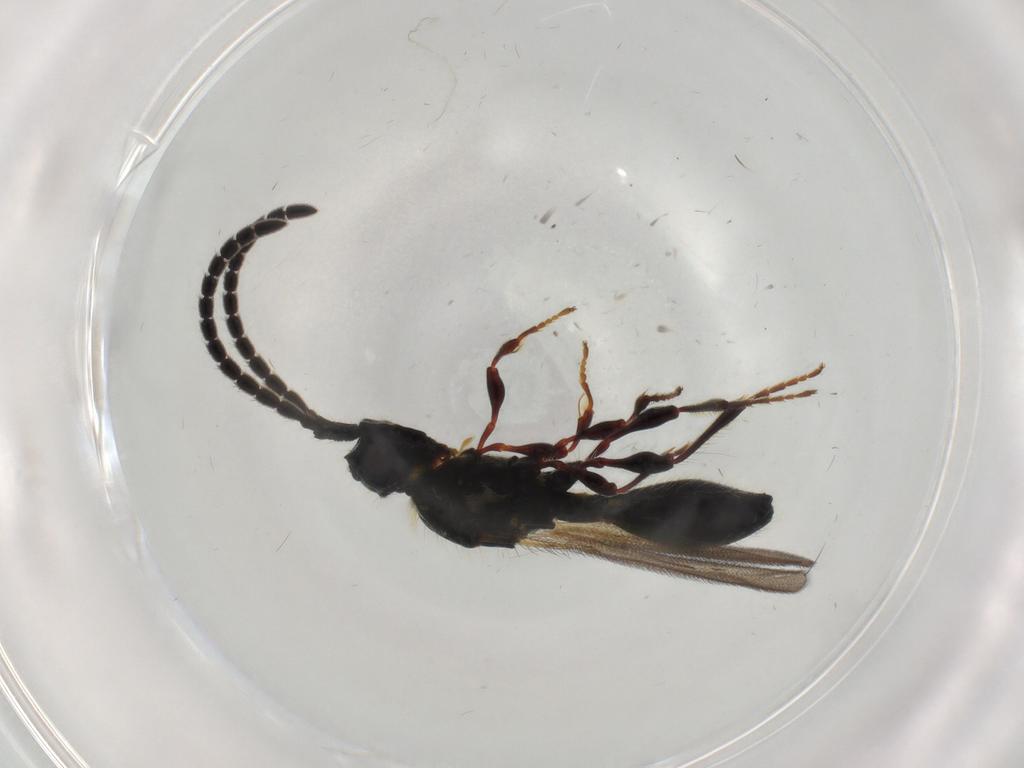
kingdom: Animalia
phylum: Arthropoda
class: Insecta
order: Hymenoptera
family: Diapriidae
